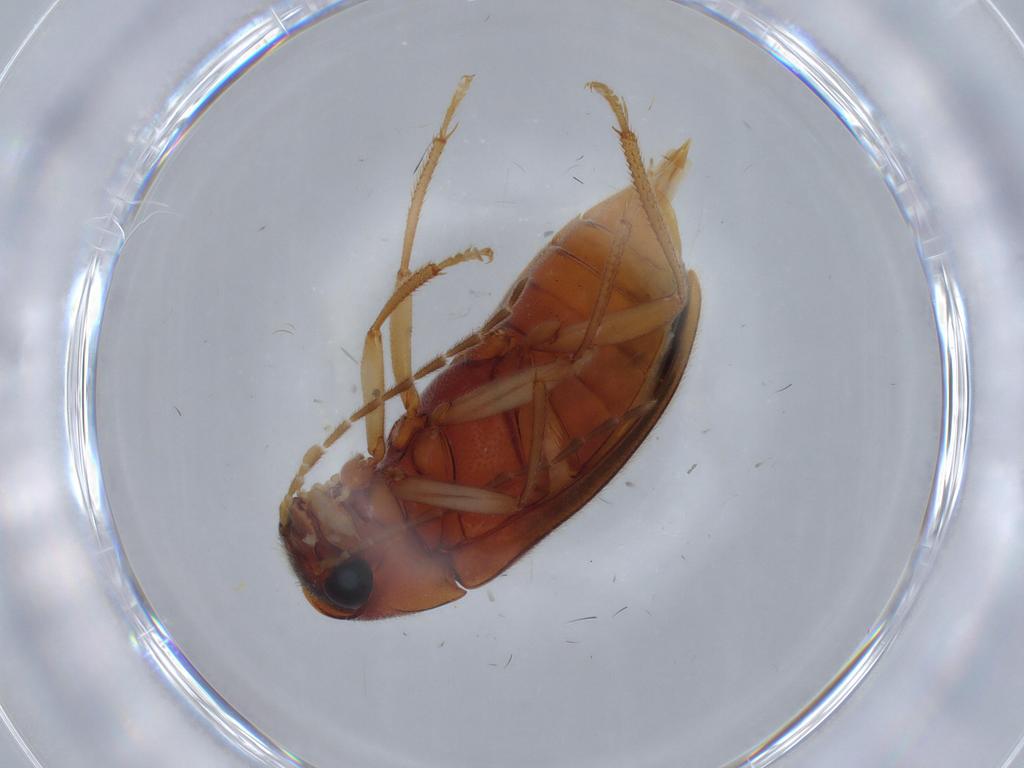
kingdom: Animalia
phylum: Arthropoda
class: Insecta
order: Coleoptera
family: Ptilodactylidae
